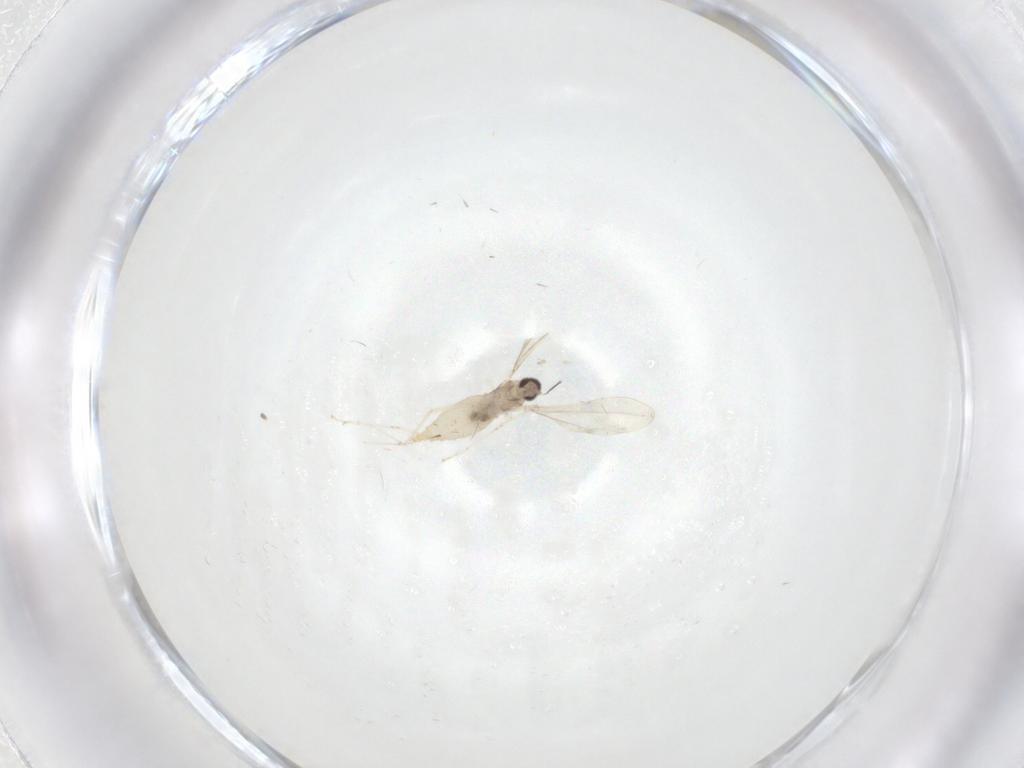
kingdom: Animalia
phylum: Arthropoda
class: Insecta
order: Diptera
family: Cecidomyiidae
